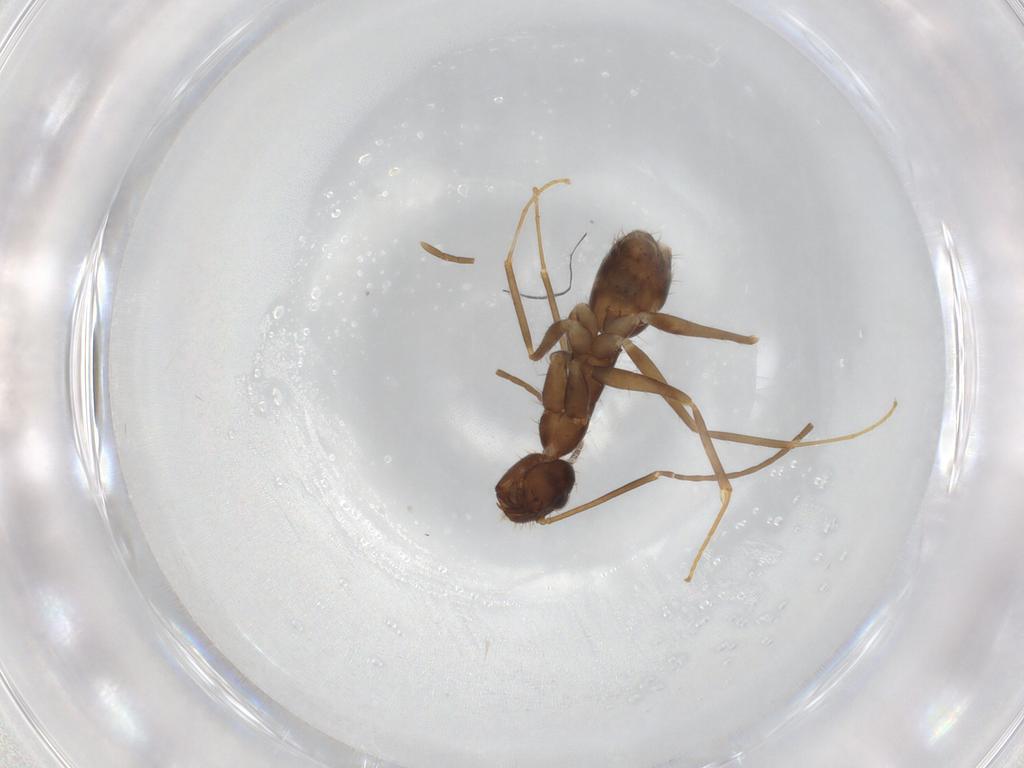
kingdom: Animalia
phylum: Arthropoda
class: Insecta
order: Hymenoptera
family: Formicidae
